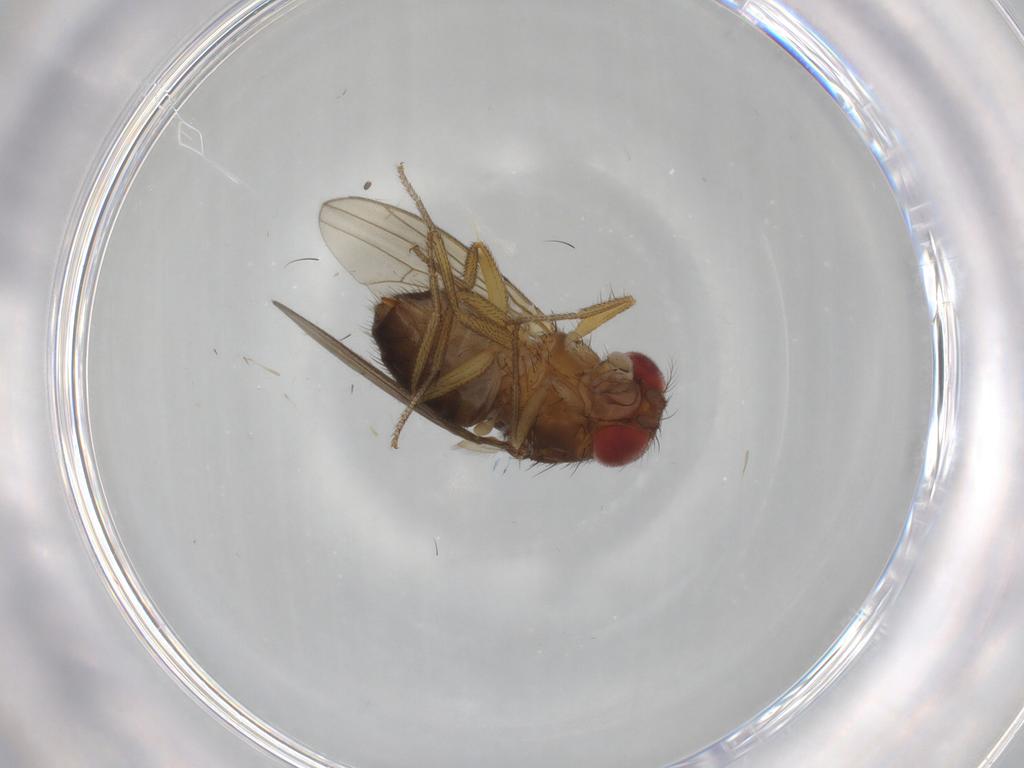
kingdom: Animalia
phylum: Arthropoda
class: Insecta
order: Diptera
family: Drosophilidae
